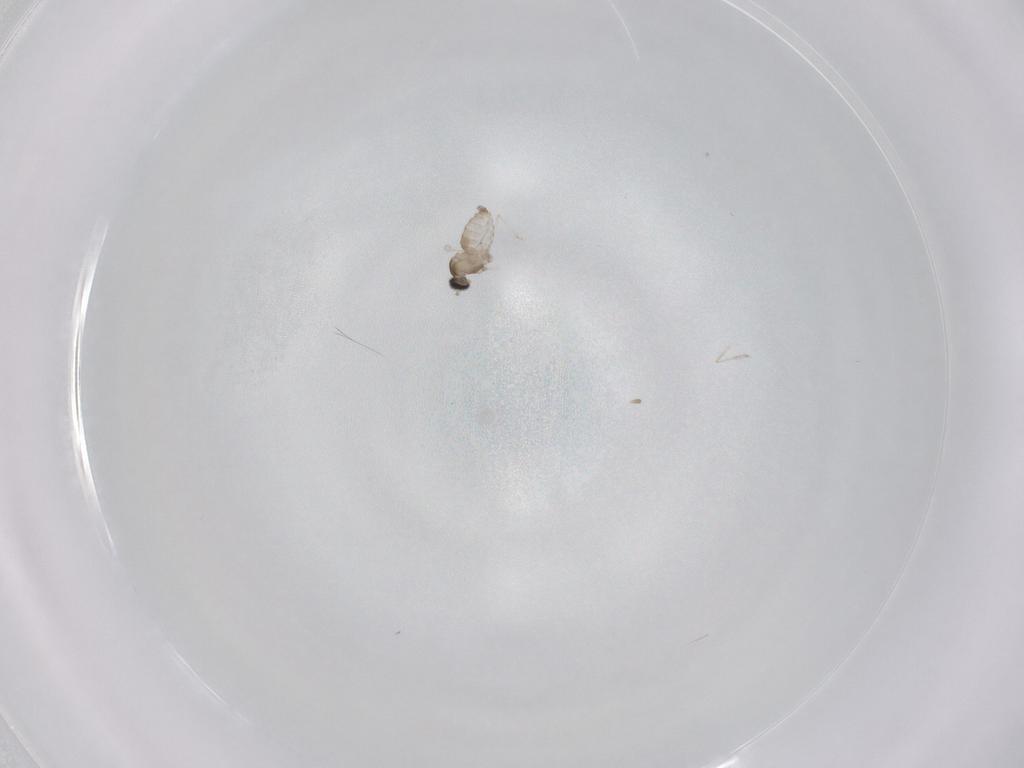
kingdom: Animalia
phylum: Arthropoda
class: Insecta
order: Diptera
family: Cecidomyiidae
